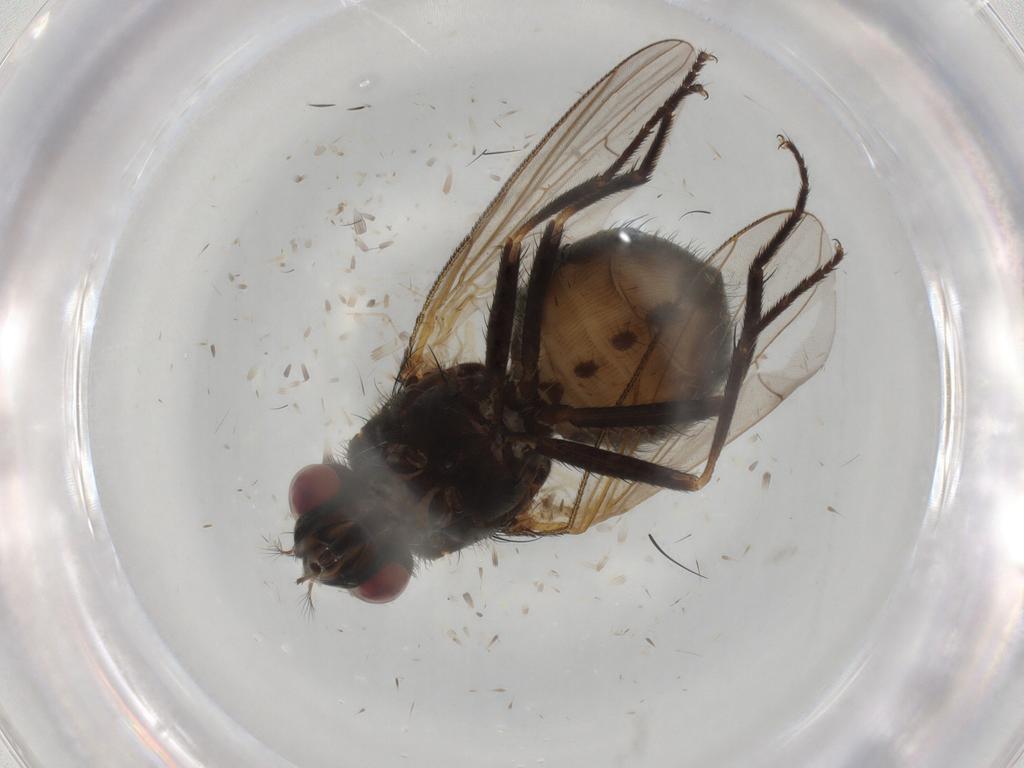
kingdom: Animalia
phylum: Arthropoda
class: Insecta
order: Diptera
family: Muscidae
